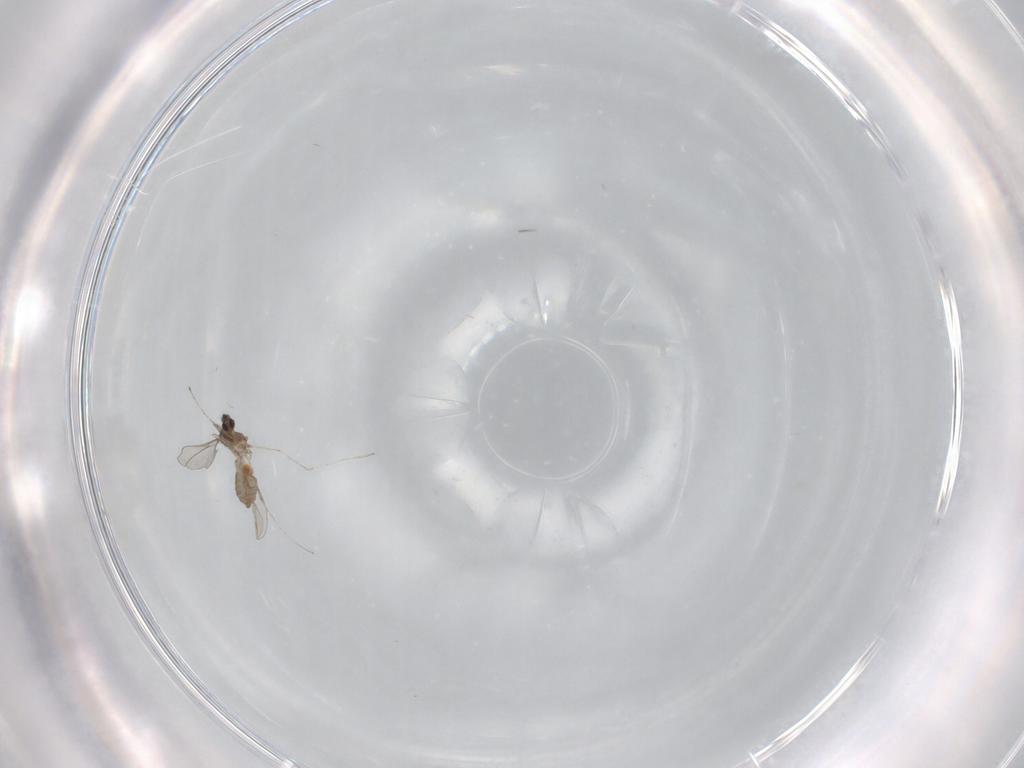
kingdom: Animalia
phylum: Arthropoda
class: Insecta
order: Diptera
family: Cecidomyiidae
